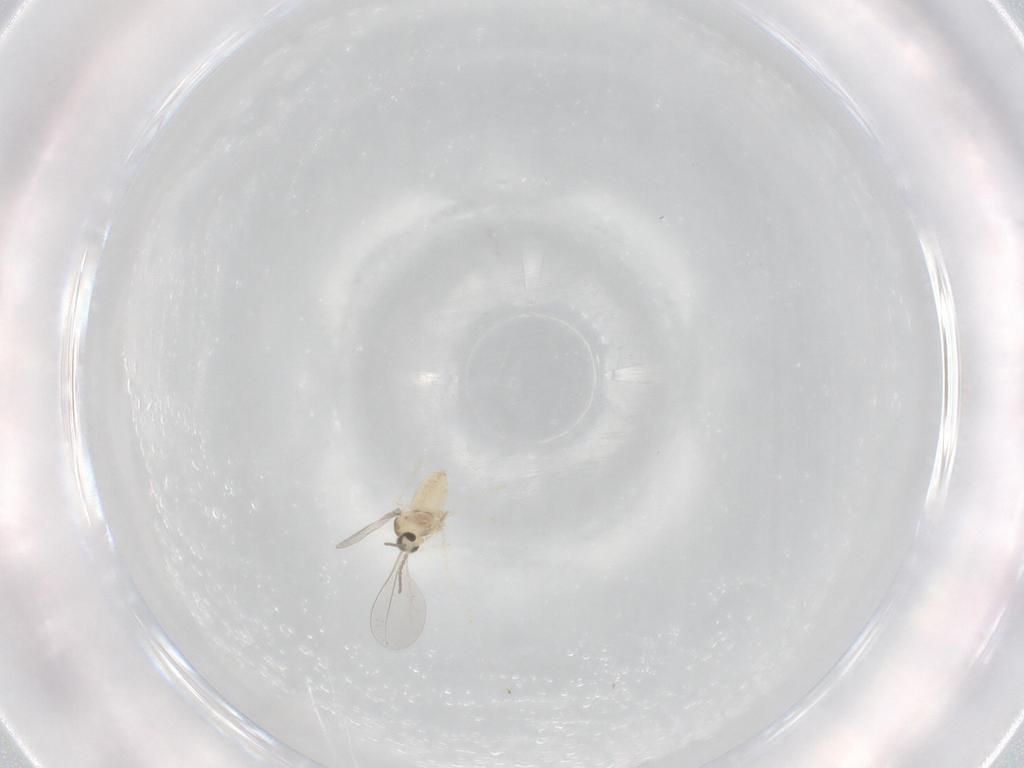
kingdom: Animalia
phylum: Arthropoda
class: Insecta
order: Diptera
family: Cecidomyiidae
